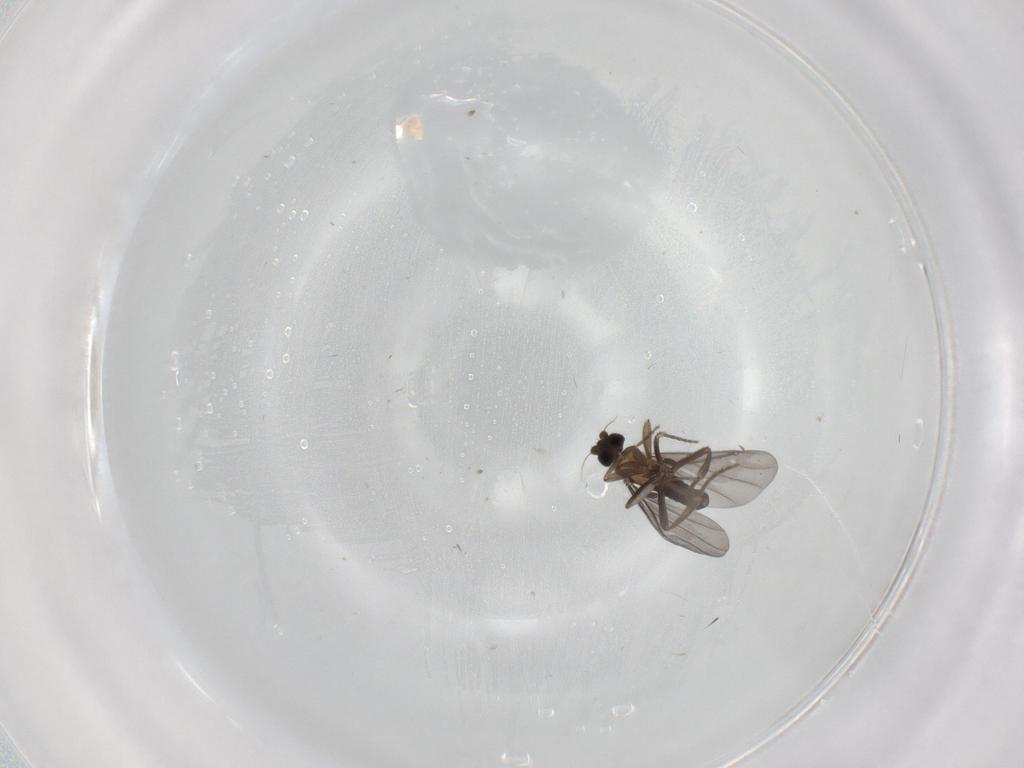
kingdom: Animalia
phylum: Arthropoda
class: Insecta
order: Diptera
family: Phoridae
